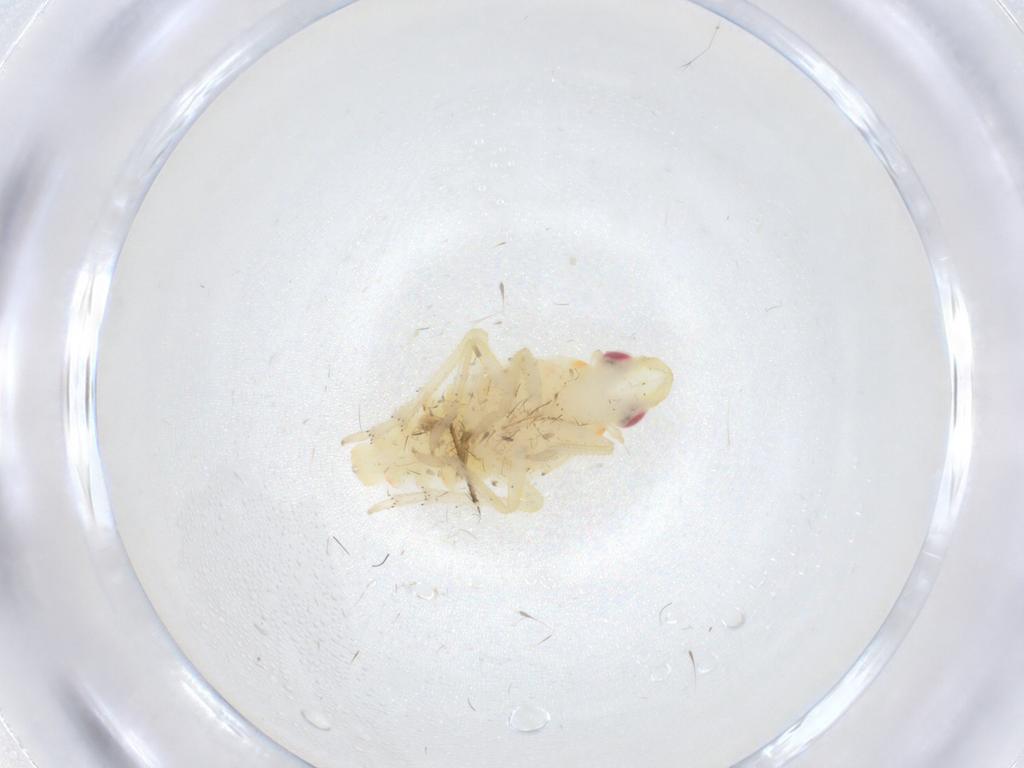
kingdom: Animalia
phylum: Arthropoda
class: Insecta
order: Hemiptera
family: Tropiduchidae
